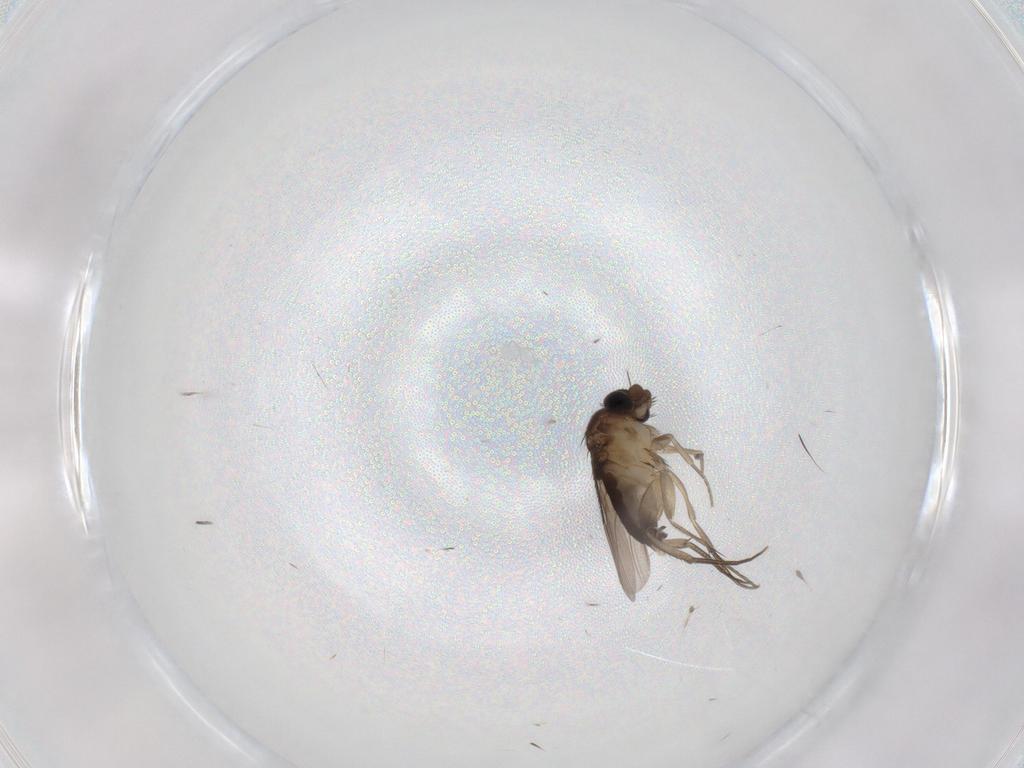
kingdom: Animalia
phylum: Arthropoda
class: Insecta
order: Diptera
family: Phoridae
